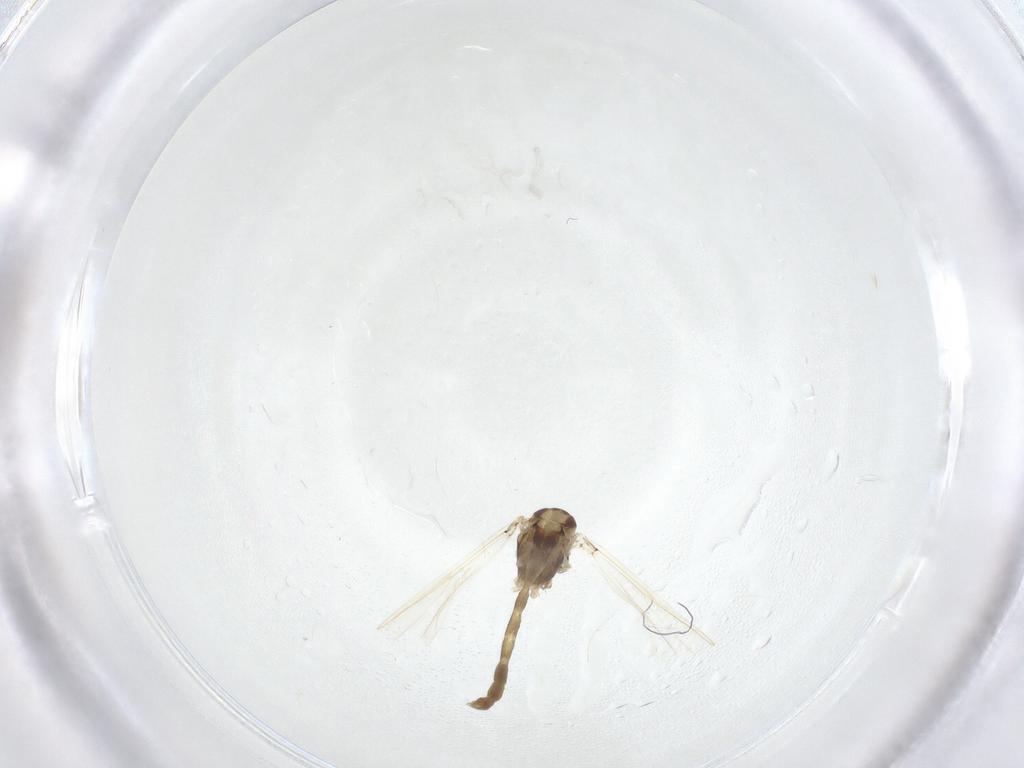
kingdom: Animalia
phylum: Arthropoda
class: Insecta
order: Diptera
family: Chironomidae
